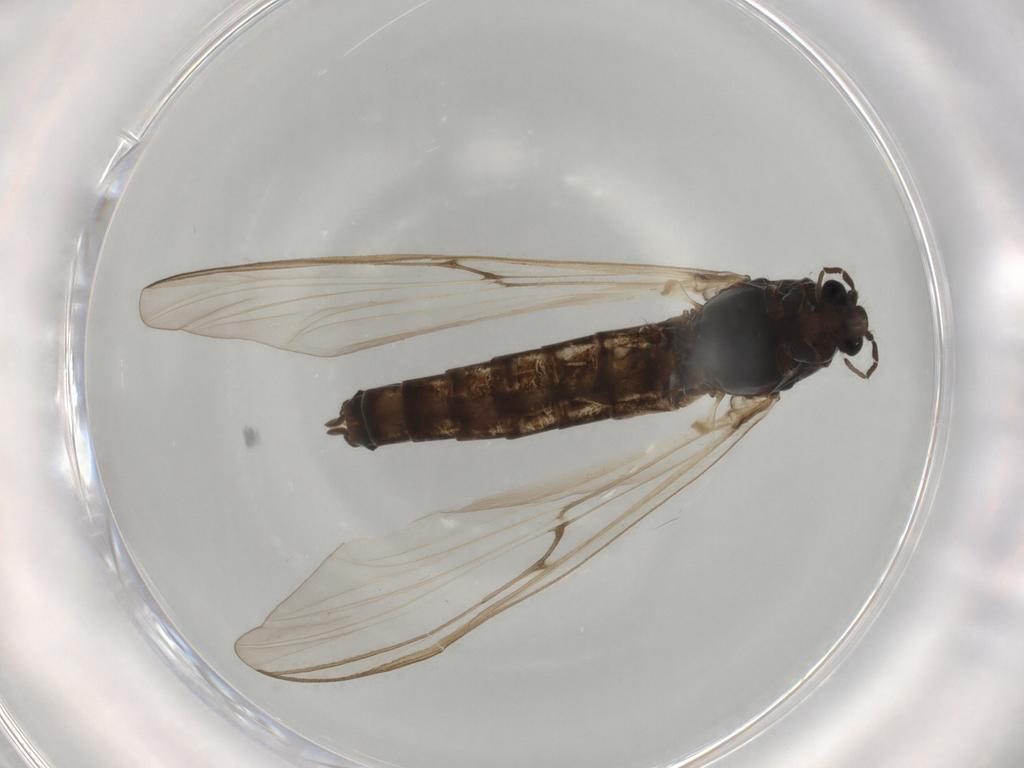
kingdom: Animalia
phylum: Arthropoda
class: Insecta
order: Diptera
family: Chironomidae
